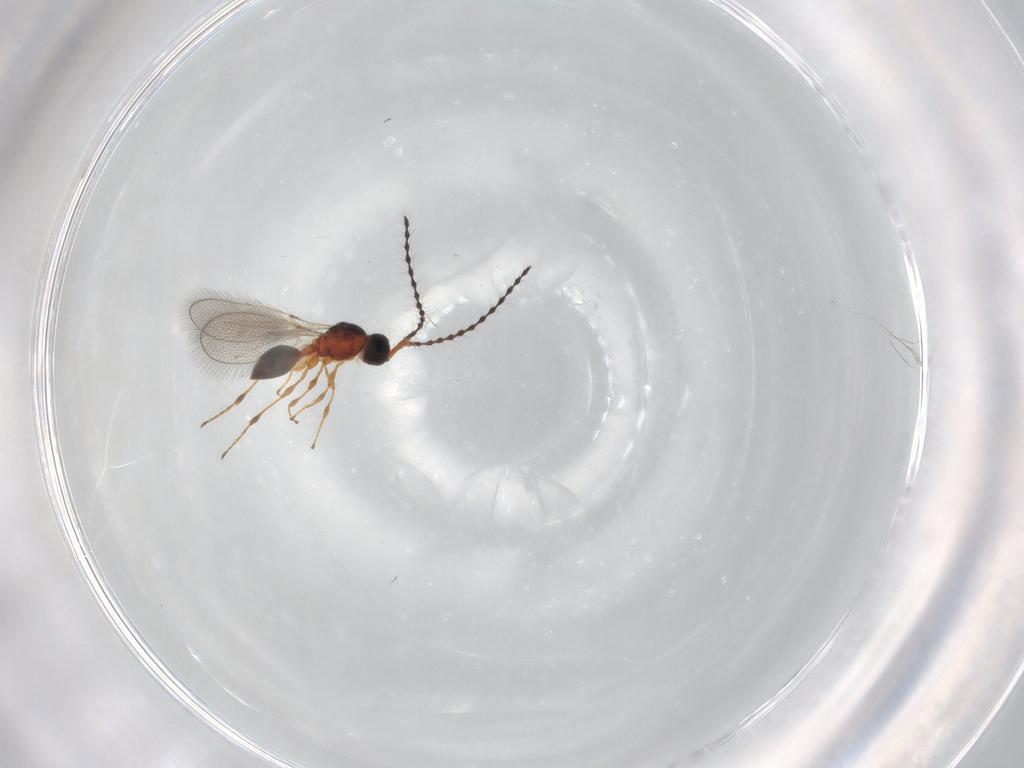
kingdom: Animalia
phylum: Arthropoda
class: Insecta
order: Hymenoptera
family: Diapriidae
